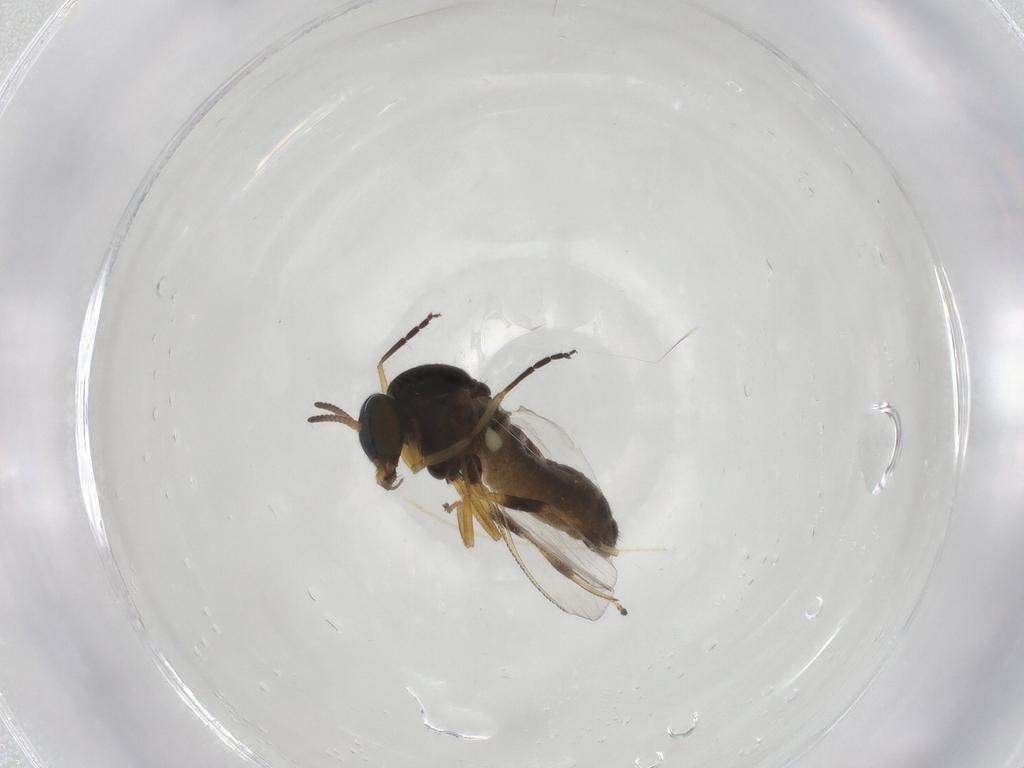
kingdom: Animalia
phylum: Arthropoda
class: Insecta
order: Diptera
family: Simuliidae
